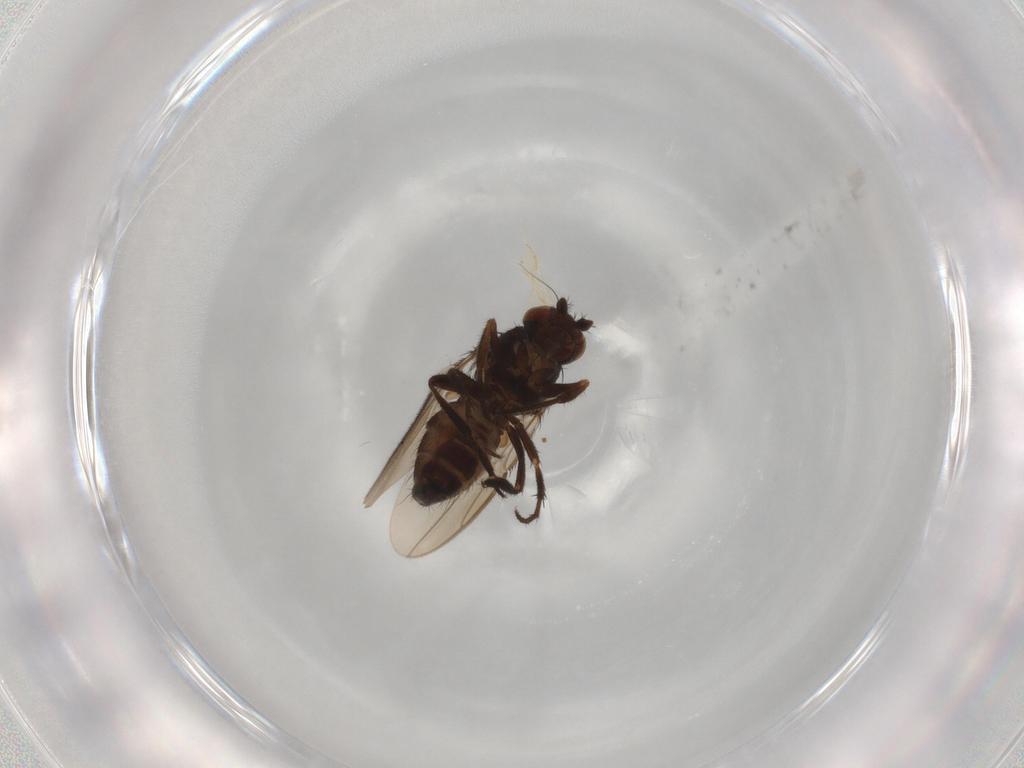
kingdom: Animalia
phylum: Arthropoda
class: Insecta
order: Diptera
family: Sphaeroceridae
